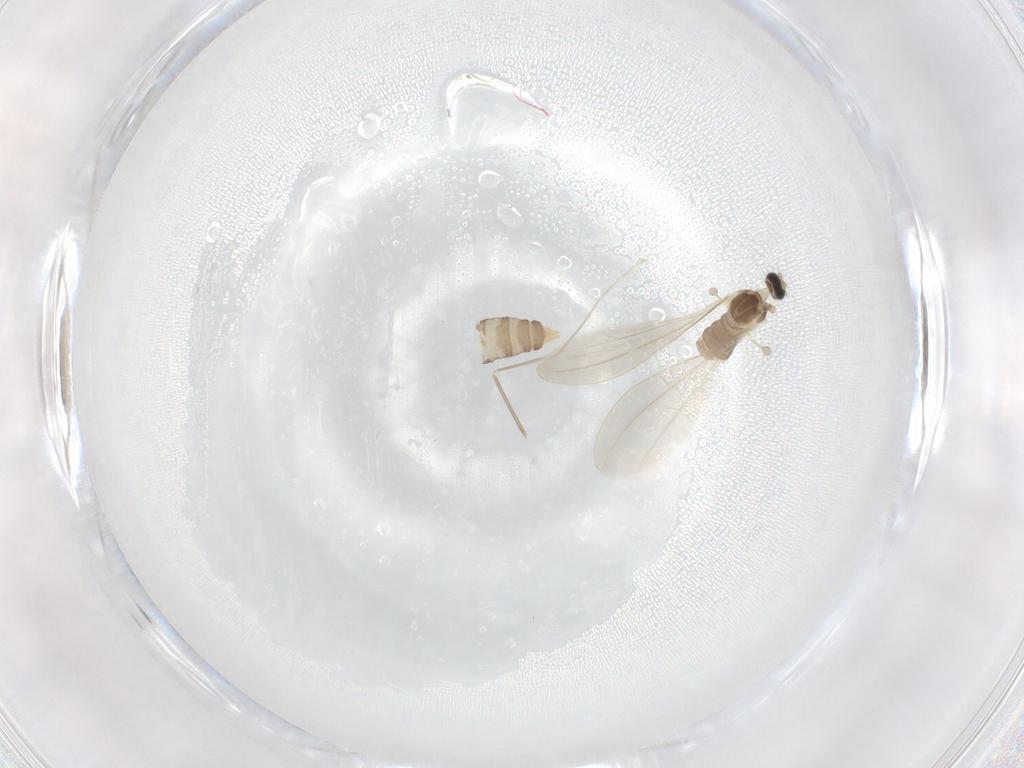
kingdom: Animalia
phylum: Arthropoda
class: Insecta
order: Diptera
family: Cecidomyiidae
